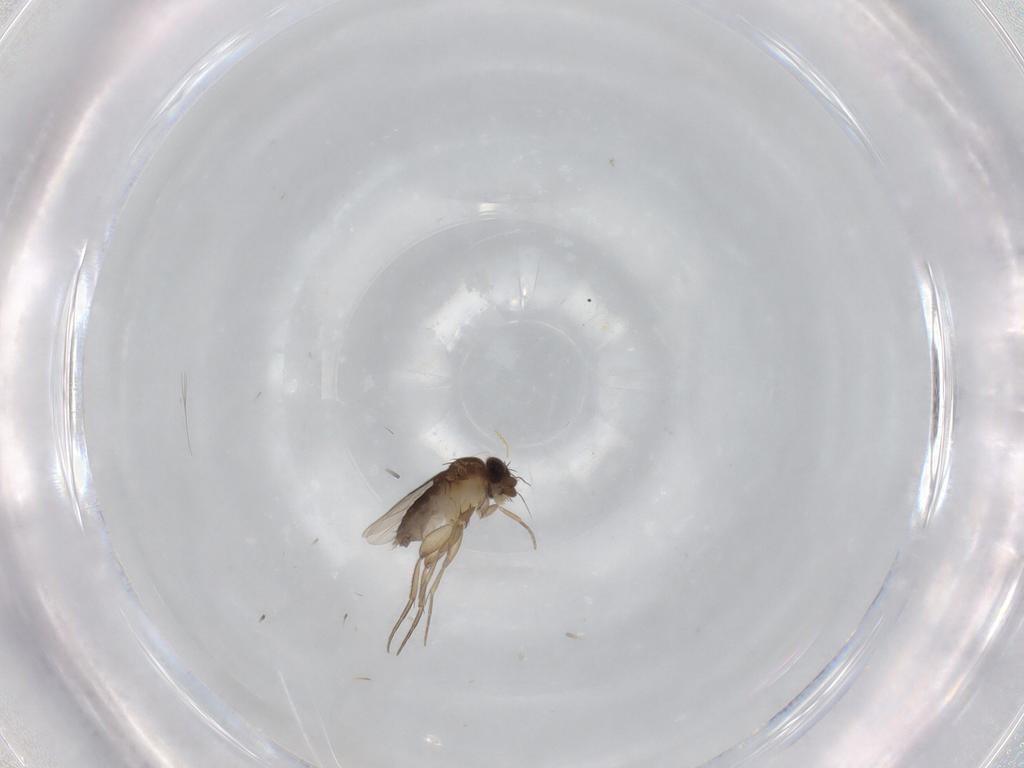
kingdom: Animalia
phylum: Arthropoda
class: Insecta
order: Diptera
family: Phoridae
